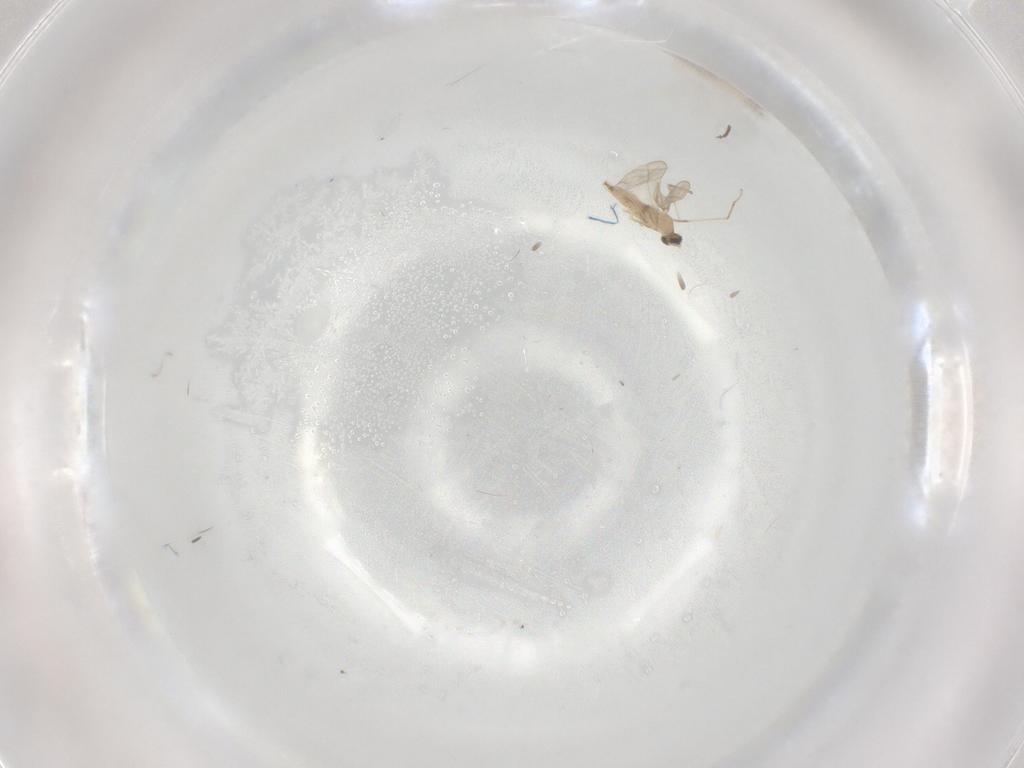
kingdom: Animalia
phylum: Arthropoda
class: Insecta
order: Diptera
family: Cecidomyiidae
